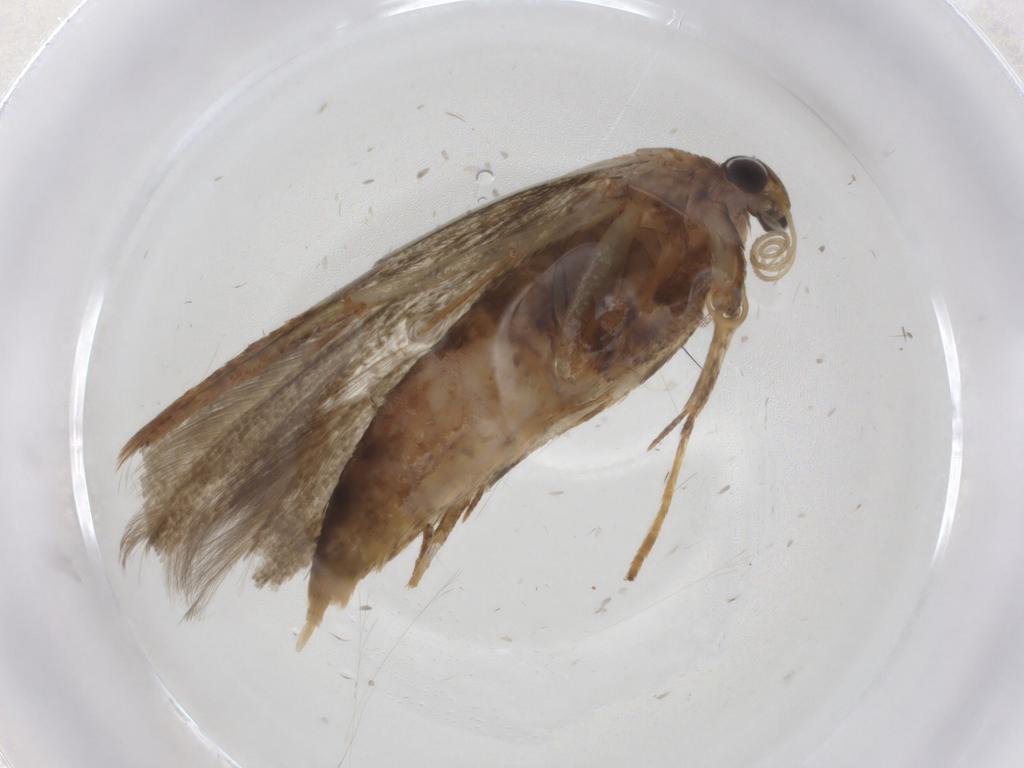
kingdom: Animalia
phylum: Arthropoda
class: Insecta
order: Lepidoptera
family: Blastobasidae
